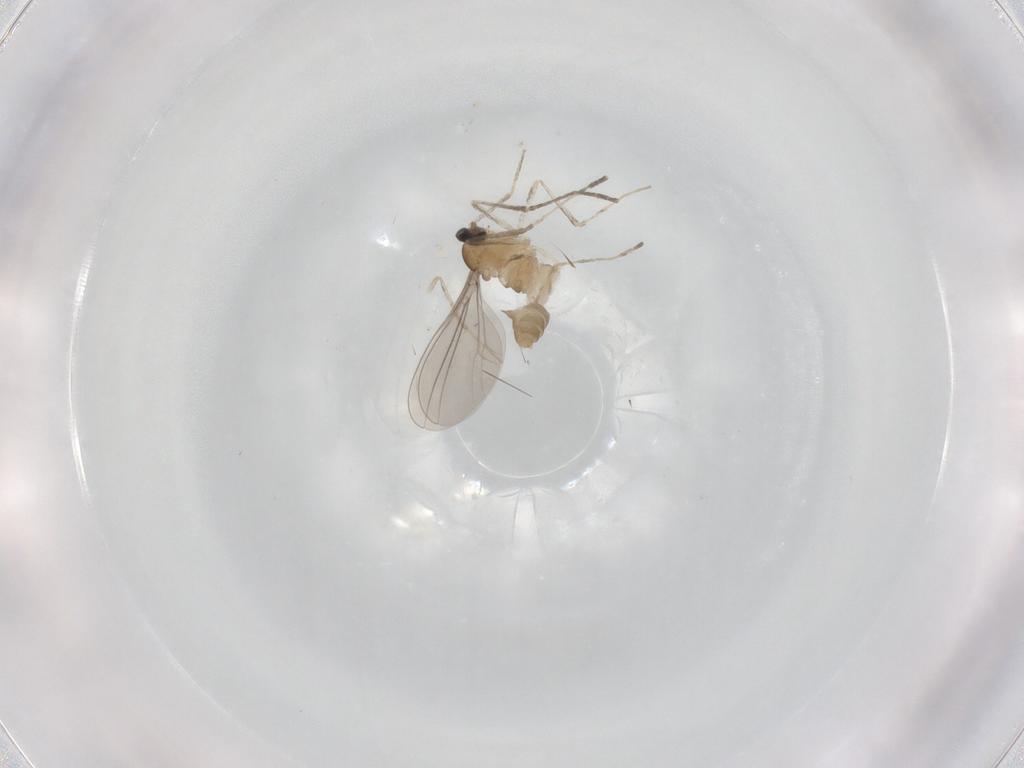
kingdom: Animalia
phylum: Arthropoda
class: Insecta
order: Diptera
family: Cecidomyiidae
